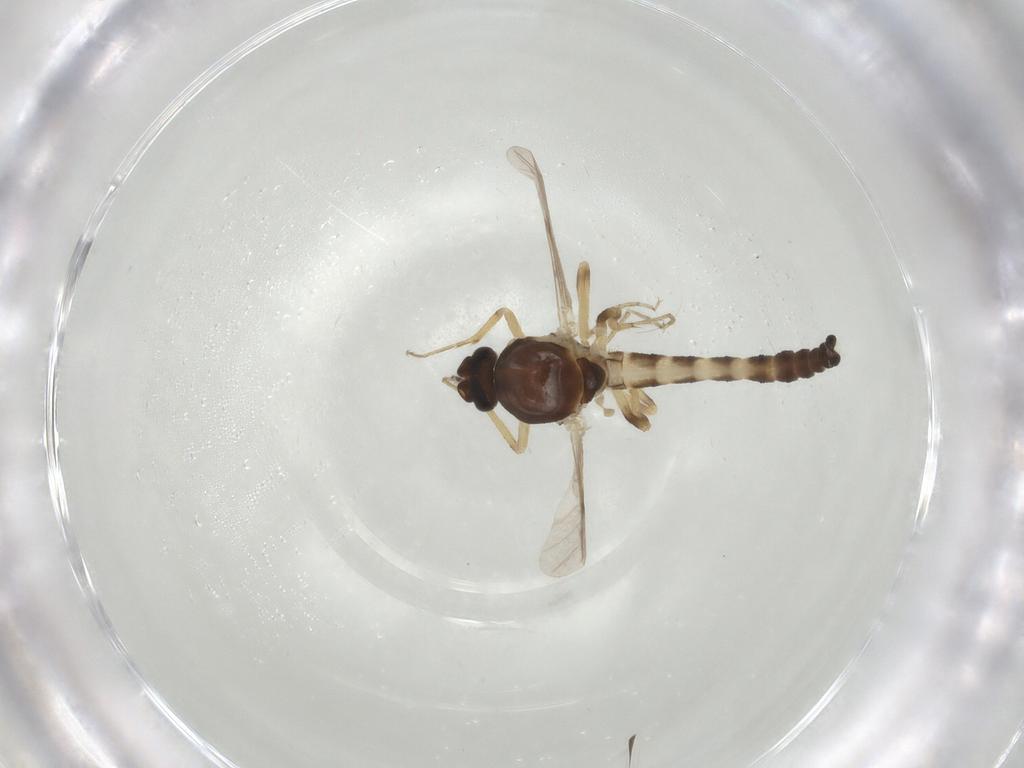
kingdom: Animalia
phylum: Arthropoda
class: Insecta
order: Diptera
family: Ceratopogonidae
